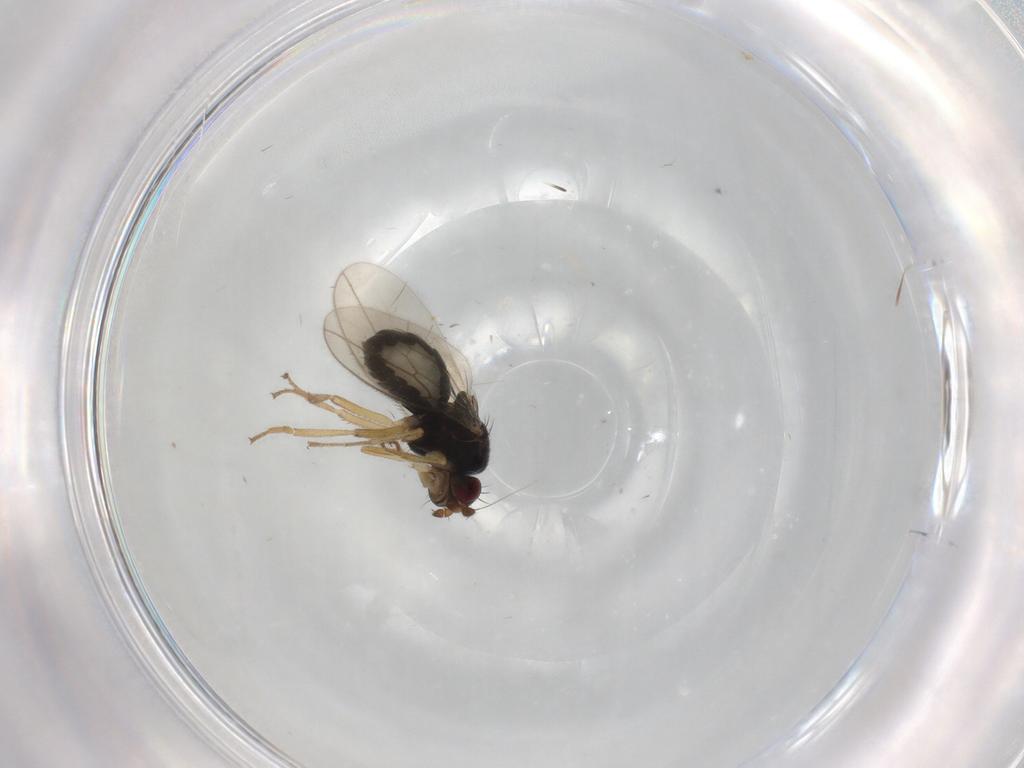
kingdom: Animalia
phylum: Arthropoda
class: Insecta
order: Diptera
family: Sphaeroceridae
